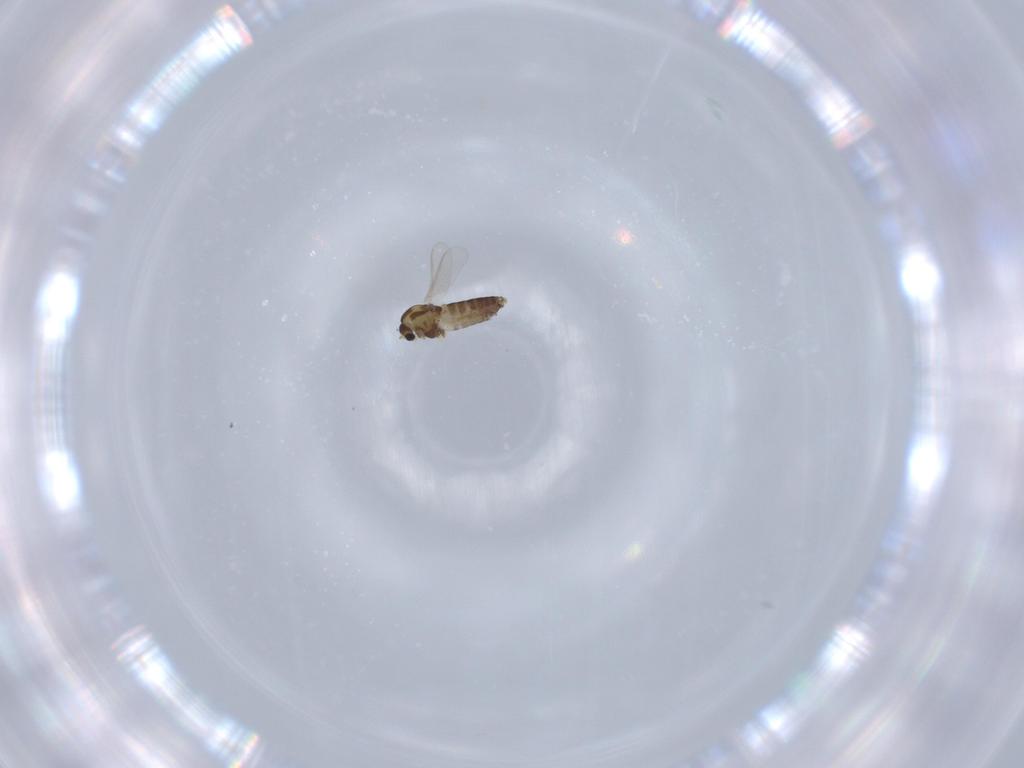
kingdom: Animalia
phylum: Arthropoda
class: Insecta
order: Diptera
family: Chironomidae
